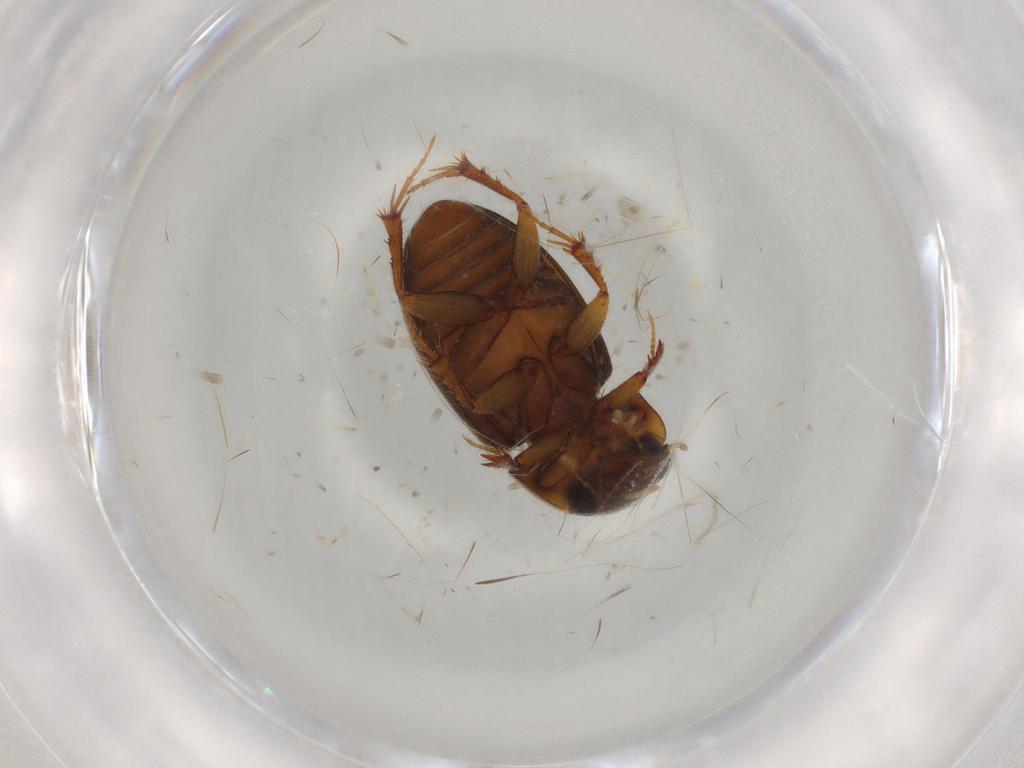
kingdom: Animalia
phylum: Arthropoda
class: Insecta
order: Coleoptera
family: Scarabaeidae
